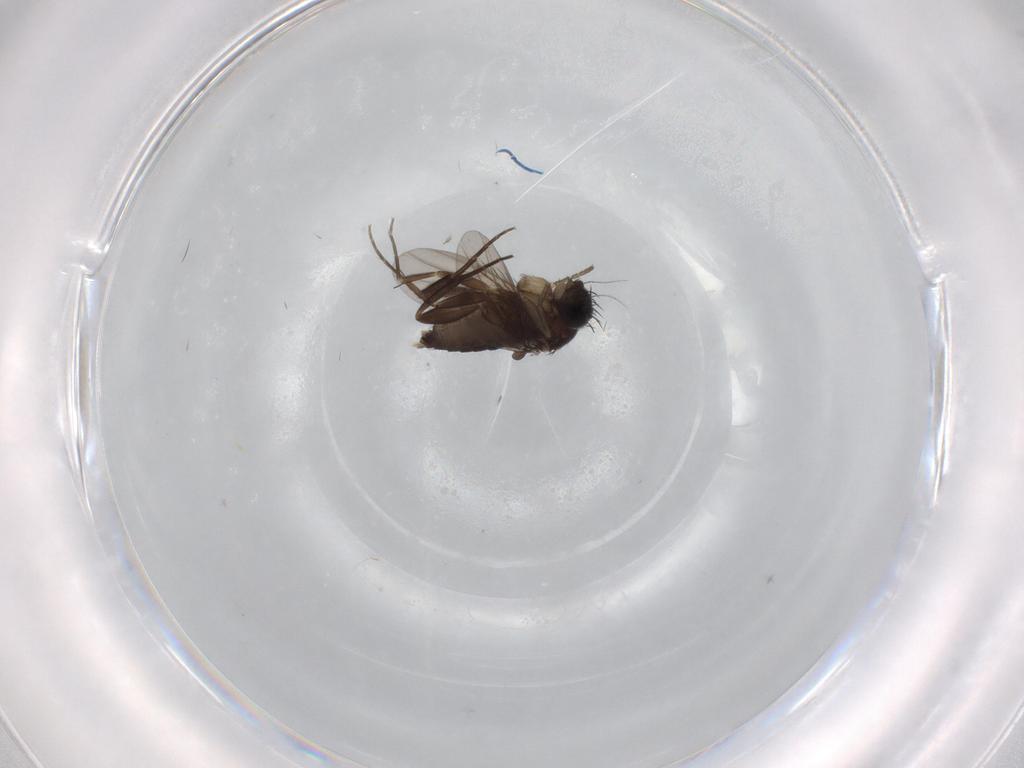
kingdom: Animalia
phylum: Arthropoda
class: Insecta
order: Diptera
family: Phoridae
